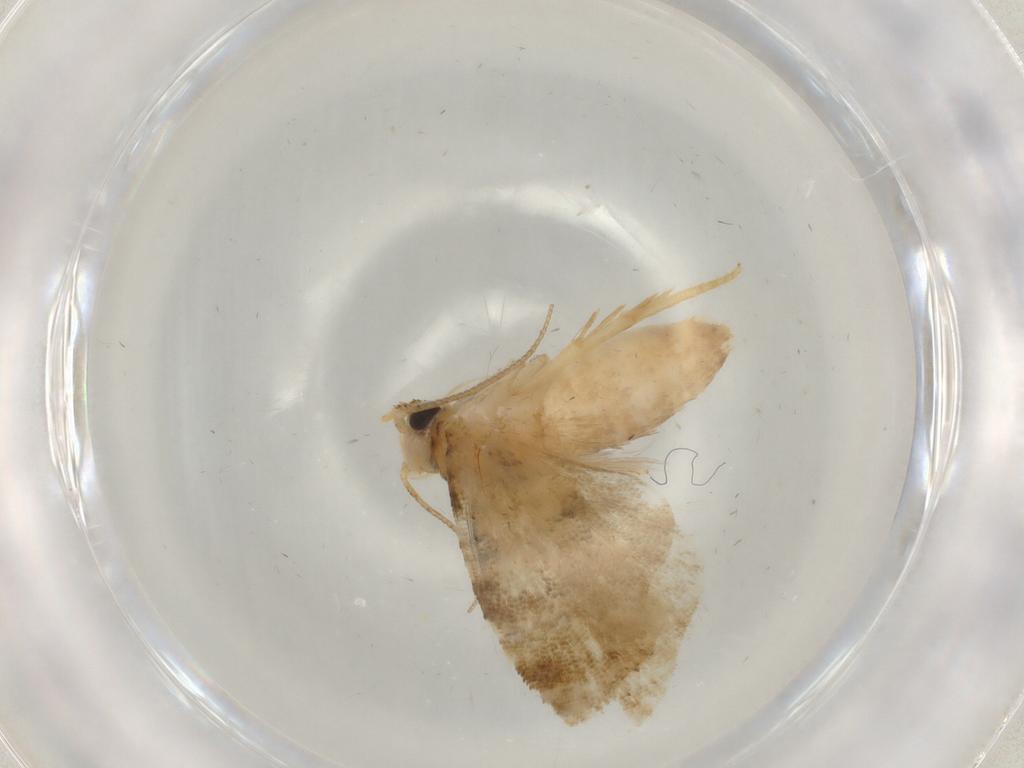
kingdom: Animalia
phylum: Arthropoda
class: Insecta
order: Lepidoptera
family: Tortricidae
